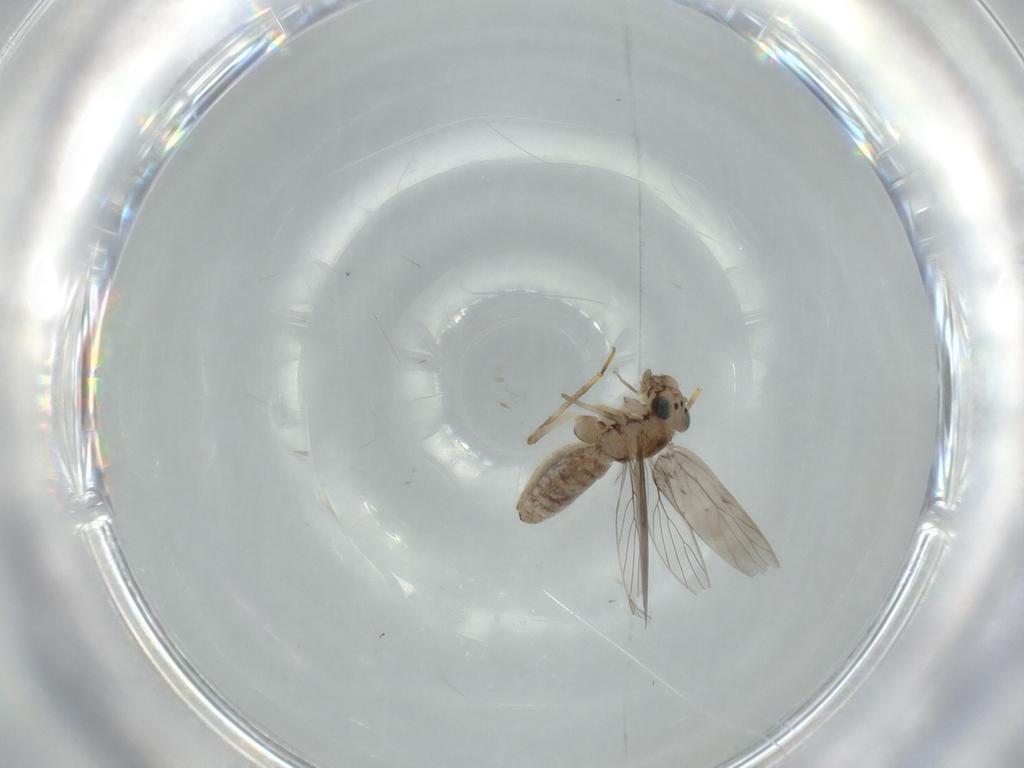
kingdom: Animalia
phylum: Arthropoda
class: Insecta
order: Psocodea
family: Lepidopsocidae
